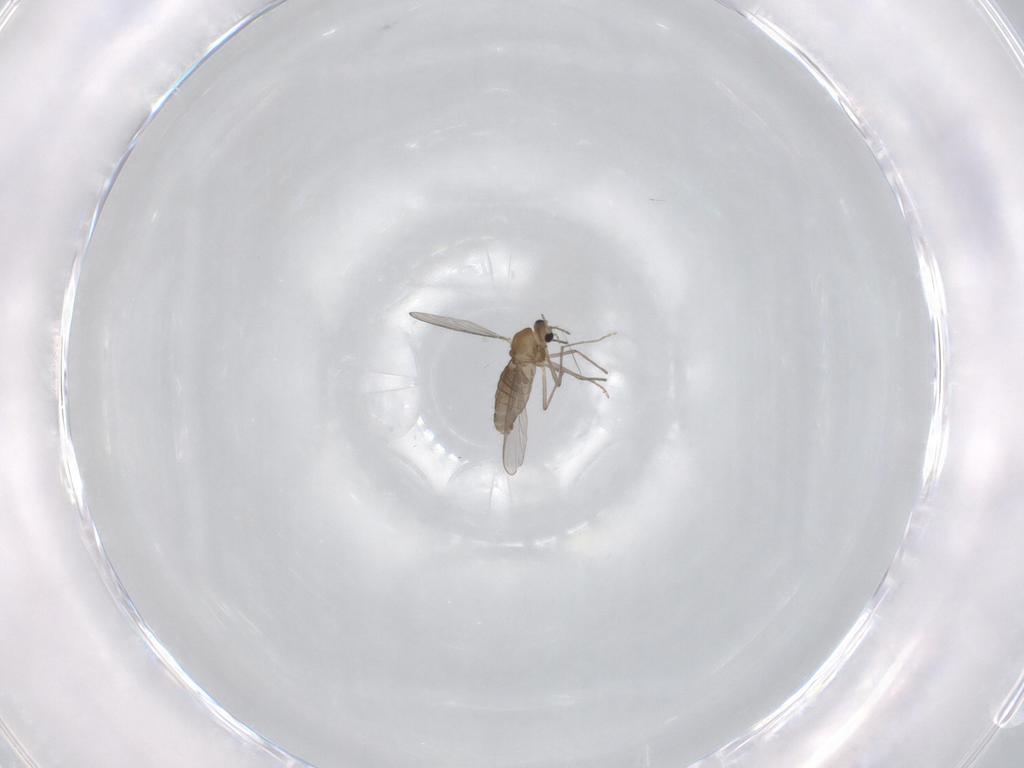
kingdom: Animalia
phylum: Arthropoda
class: Insecta
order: Diptera
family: Chironomidae
